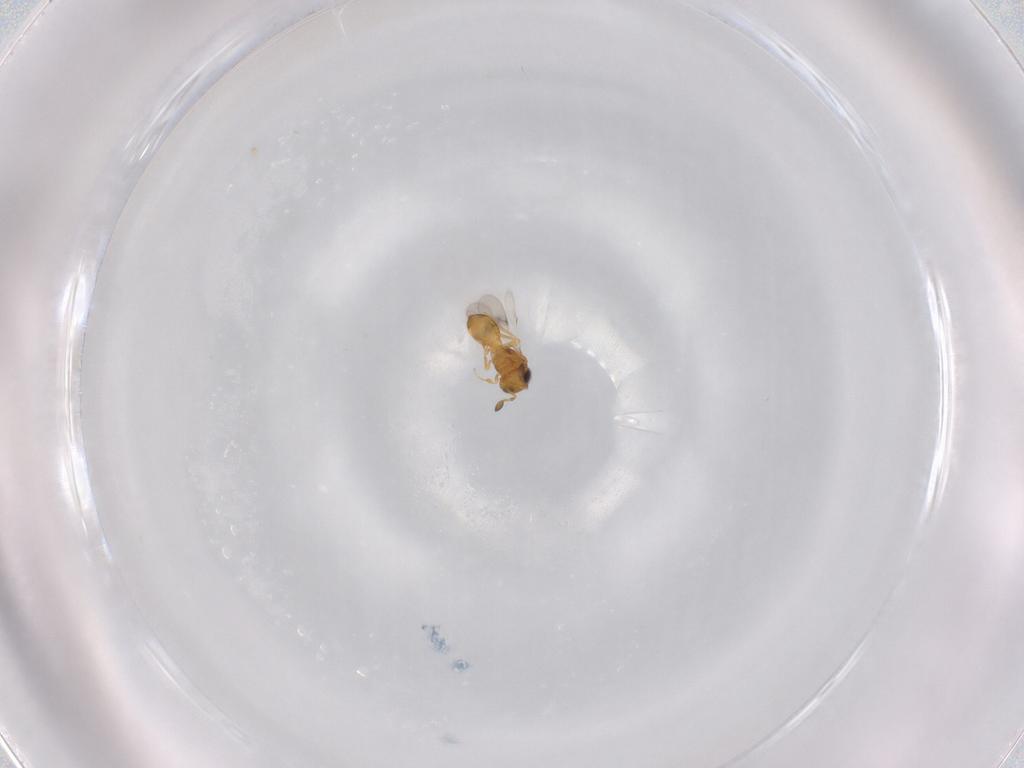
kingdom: Animalia
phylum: Arthropoda
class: Insecta
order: Hymenoptera
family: Scelionidae
